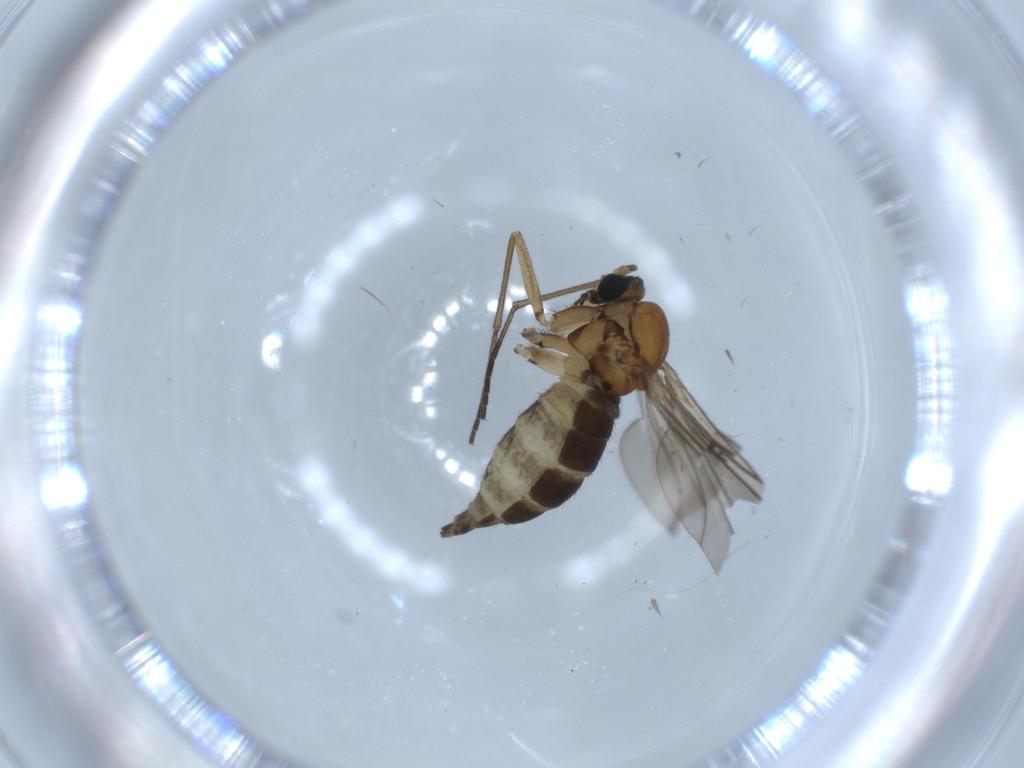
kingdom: Animalia
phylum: Arthropoda
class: Insecta
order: Diptera
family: Sciaridae
